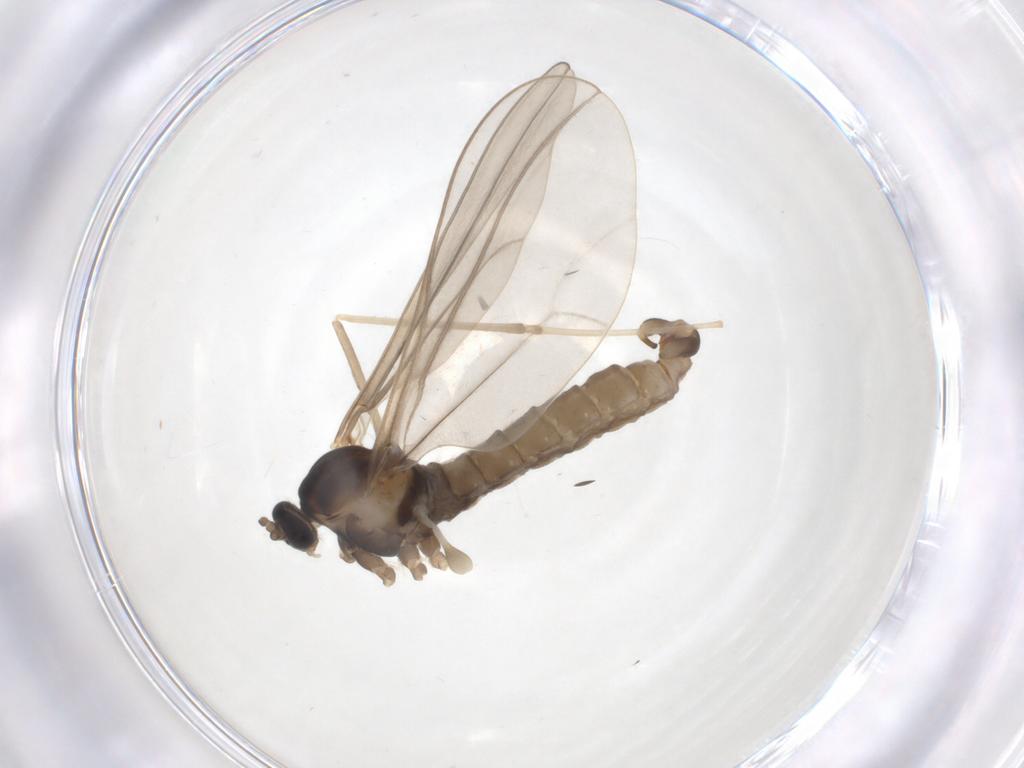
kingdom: Animalia
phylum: Arthropoda
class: Insecta
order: Diptera
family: Cecidomyiidae
